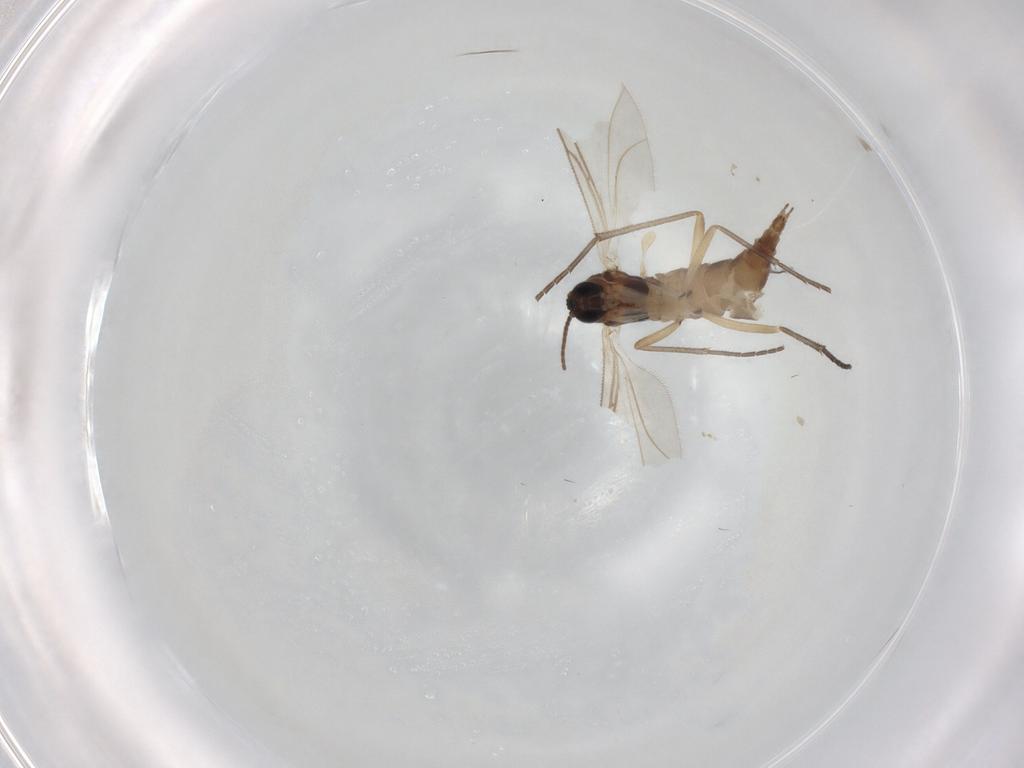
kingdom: Animalia
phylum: Arthropoda
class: Insecta
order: Diptera
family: Sciaridae
